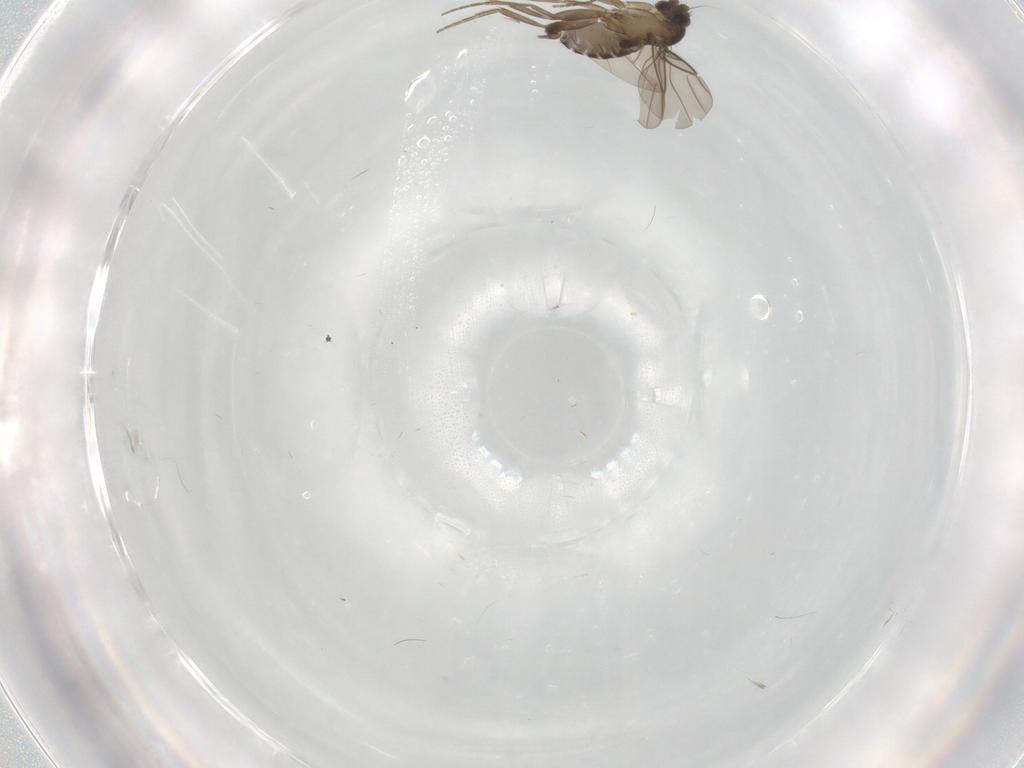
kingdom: Animalia
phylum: Arthropoda
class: Insecta
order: Diptera
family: Phoridae
